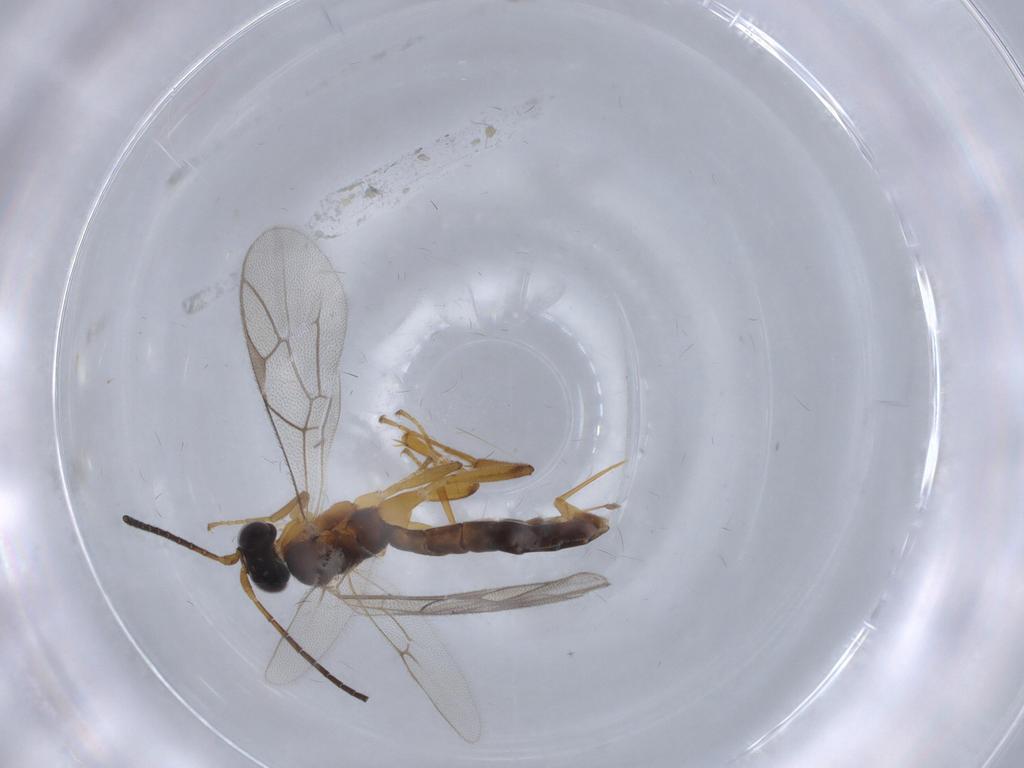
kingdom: Animalia
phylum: Arthropoda
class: Insecta
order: Hymenoptera
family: Ichneumonidae
